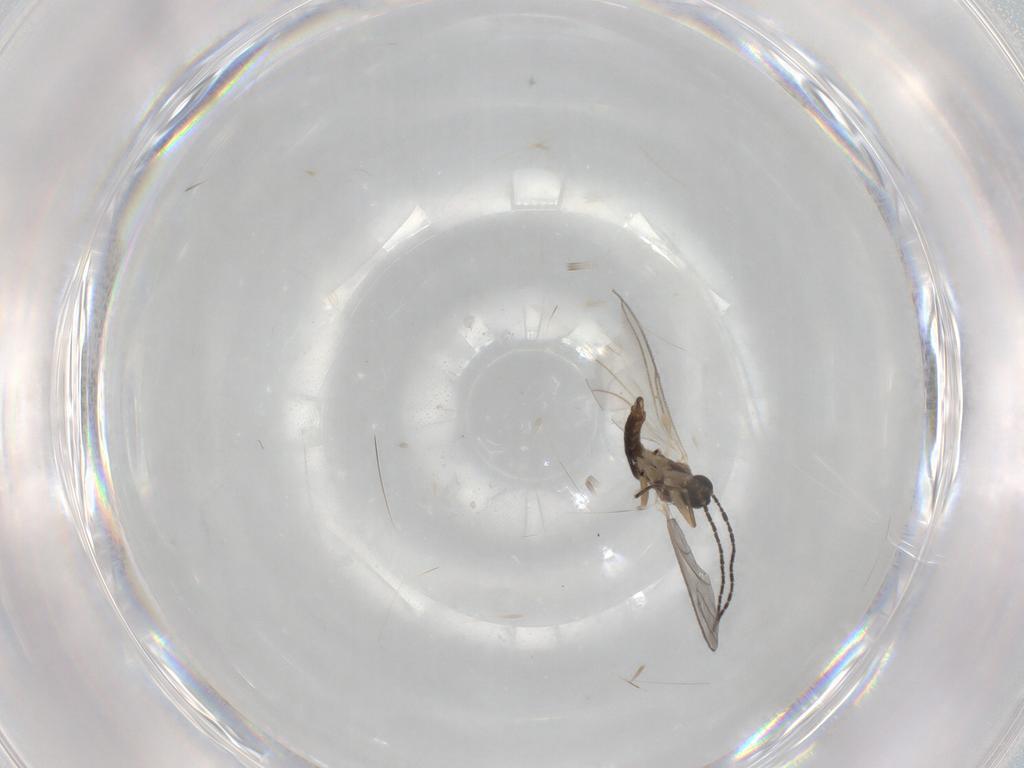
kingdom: Animalia
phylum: Arthropoda
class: Insecta
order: Diptera
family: Sciaridae
